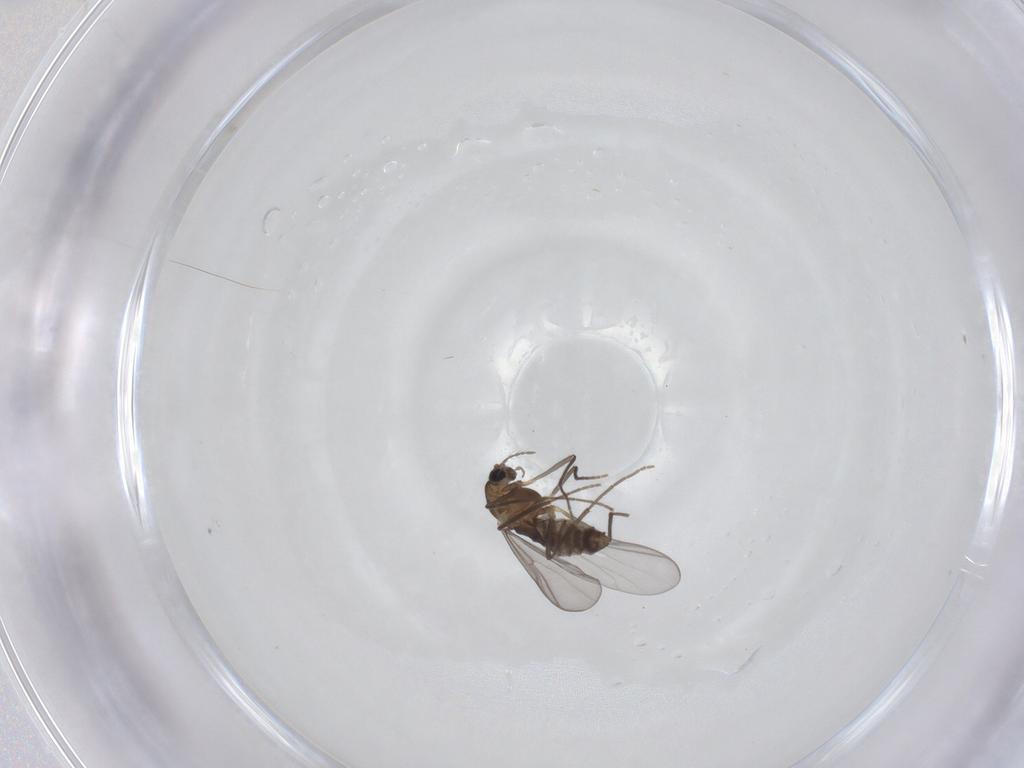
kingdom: Animalia
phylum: Arthropoda
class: Insecta
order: Diptera
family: Chironomidae
